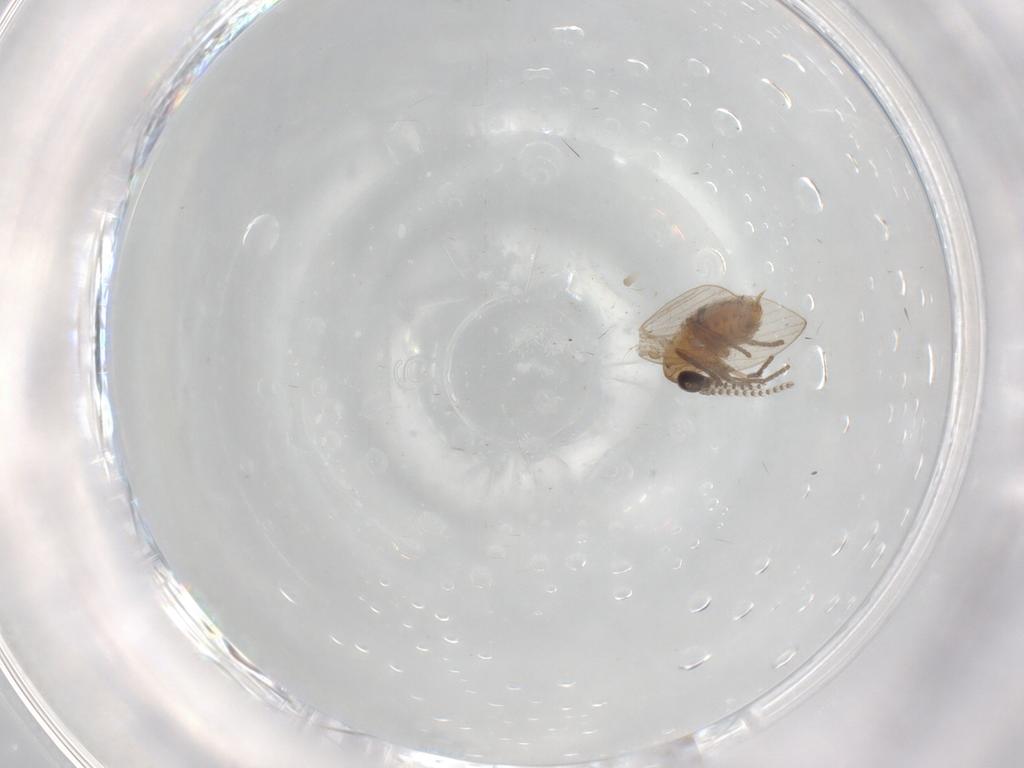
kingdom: Animalia
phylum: Arthropoda
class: Insecta
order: Diptera
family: Psychodidae
